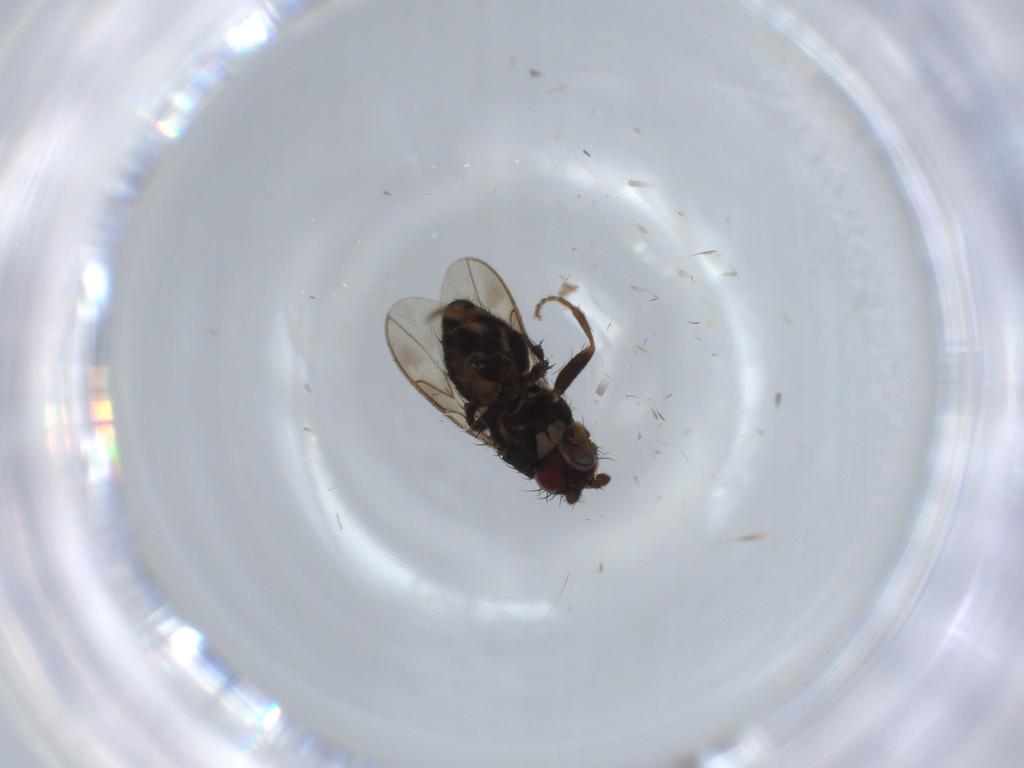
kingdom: Animalia
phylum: Arthropoda
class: Insecta
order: Diptera
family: Sphaeroceridae
